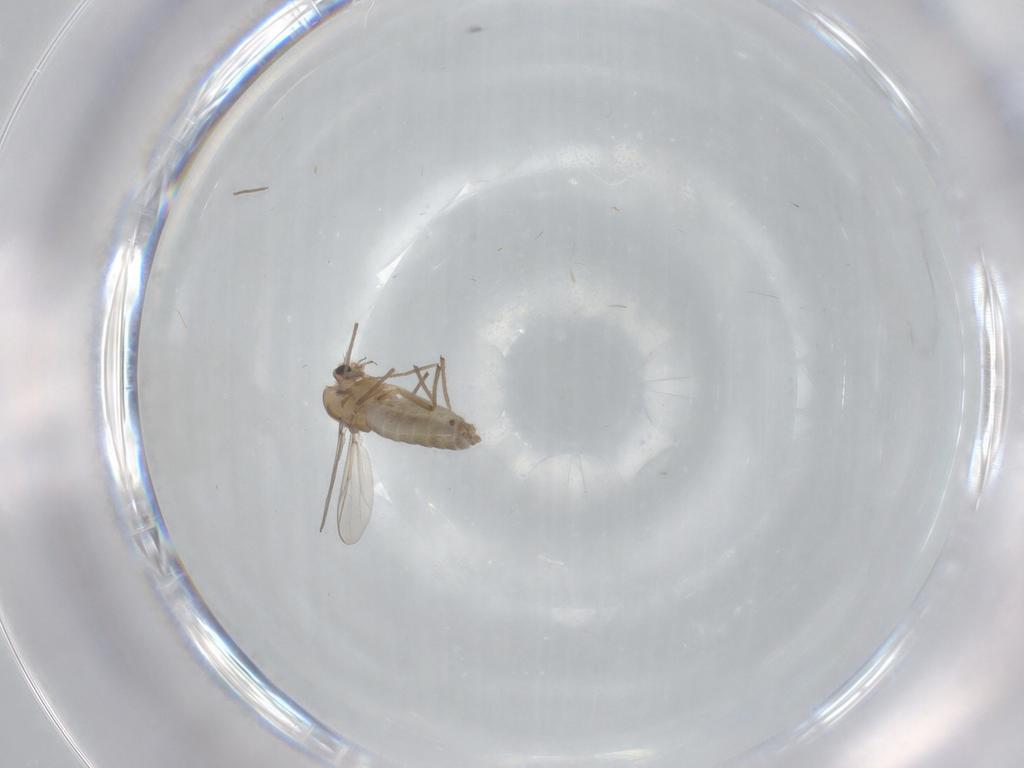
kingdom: Animalia
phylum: Arthropoda
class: Insecta
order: Diptera
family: Chironomidae
